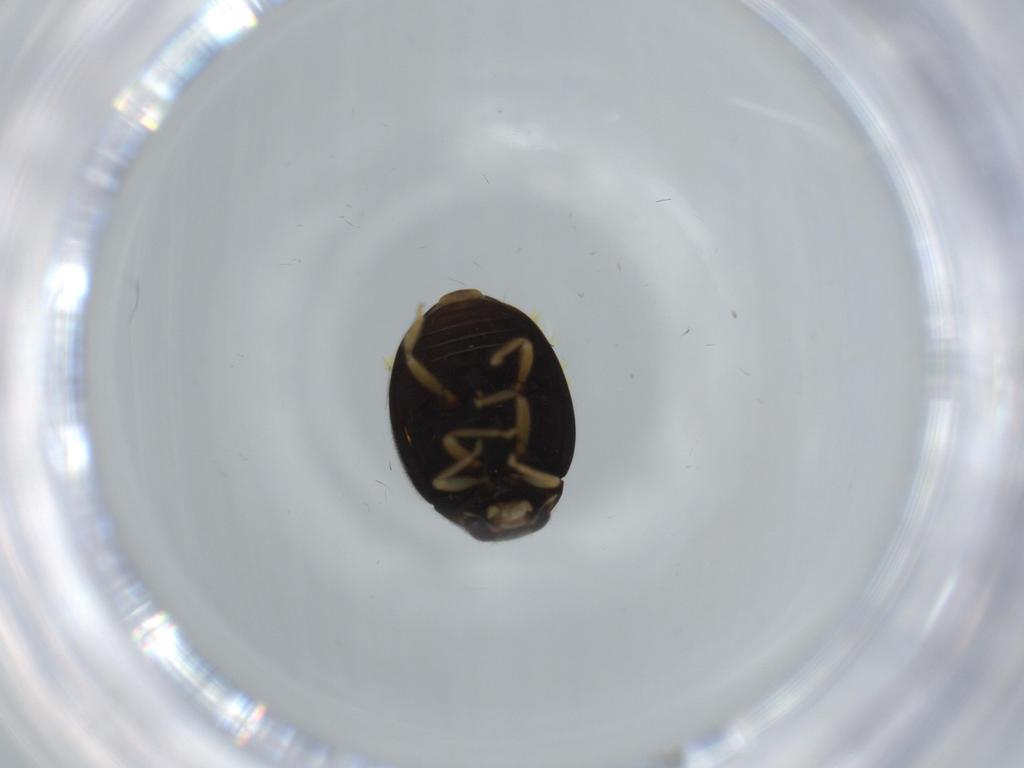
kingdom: Animalia
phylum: Arthropoda
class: Insecta
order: Coleoptera
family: Coccinellidae
